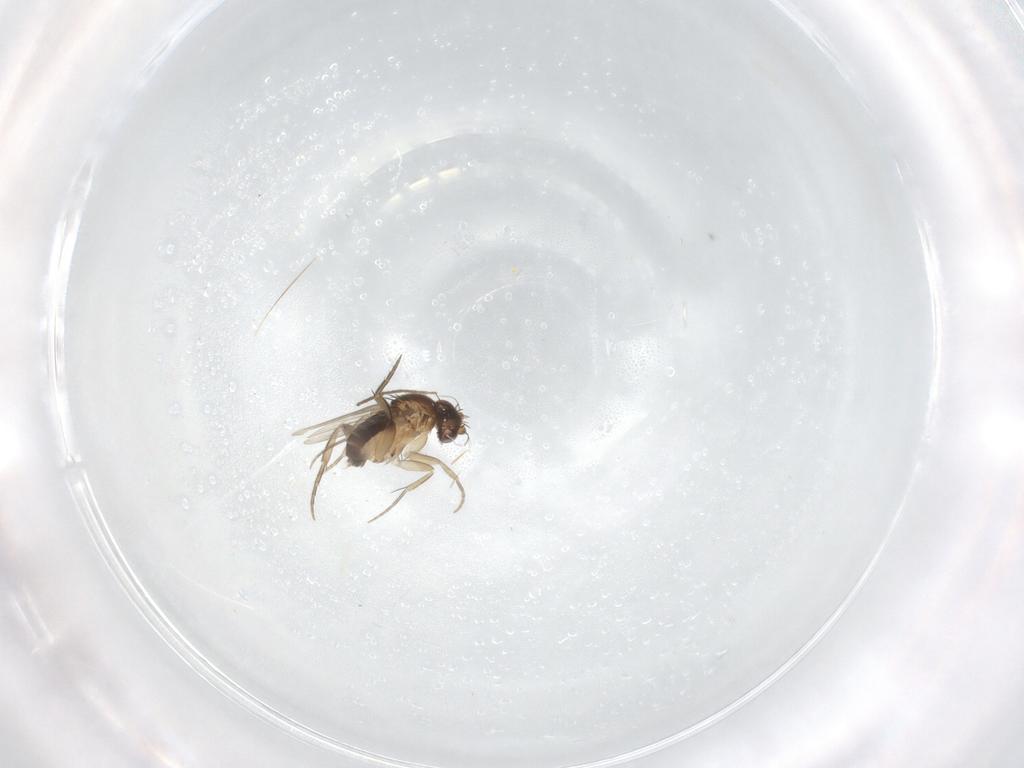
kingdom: Animalia
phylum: Arthropoda
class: Insecta
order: Diptera
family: Phoridae
